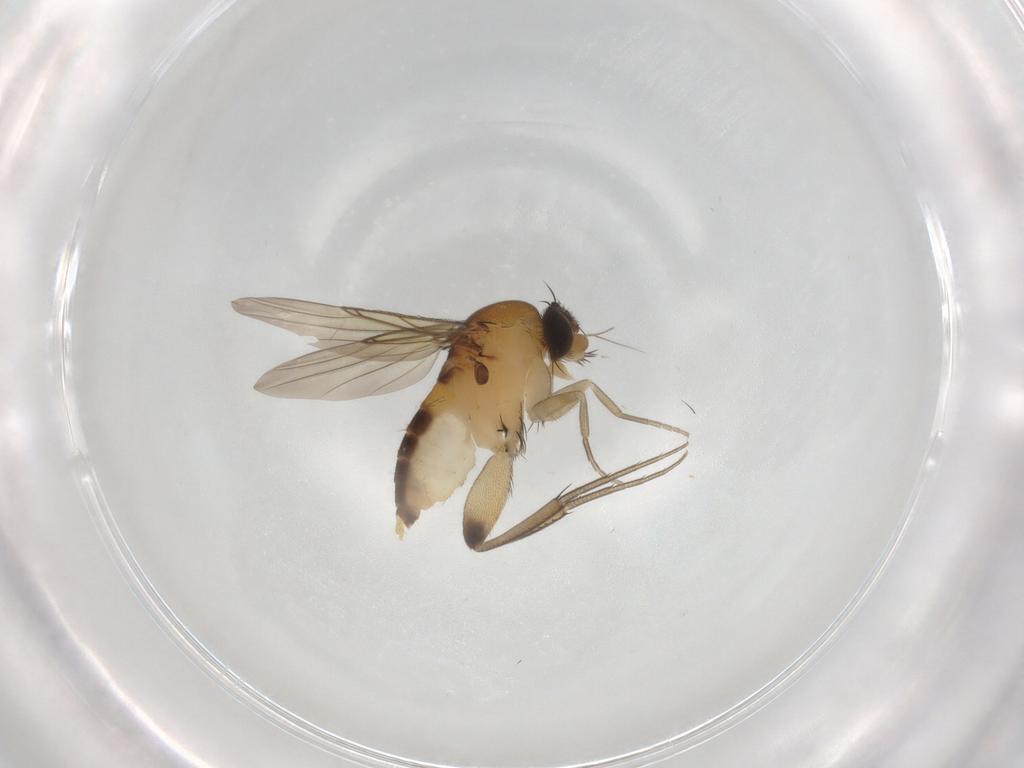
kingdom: Animalia
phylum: Arthropoda
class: Insecta
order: Diptera
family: Phoridae
